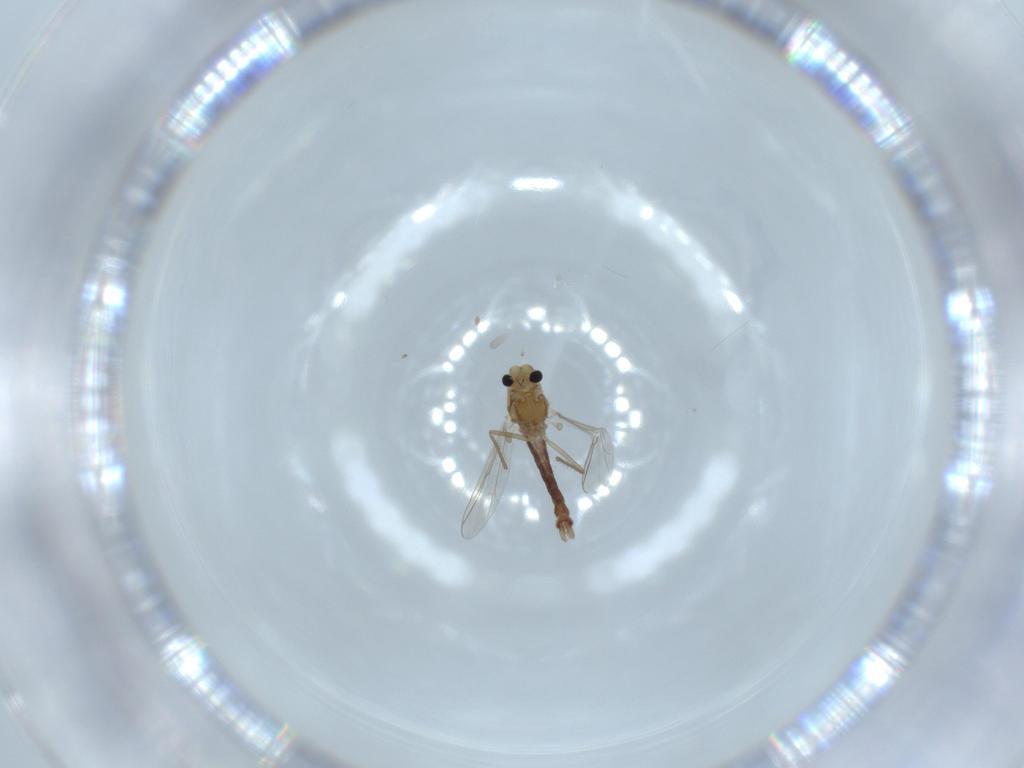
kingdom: Animalia
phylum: Arthropoda
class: Insecta
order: Diptera
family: Chironomidae
